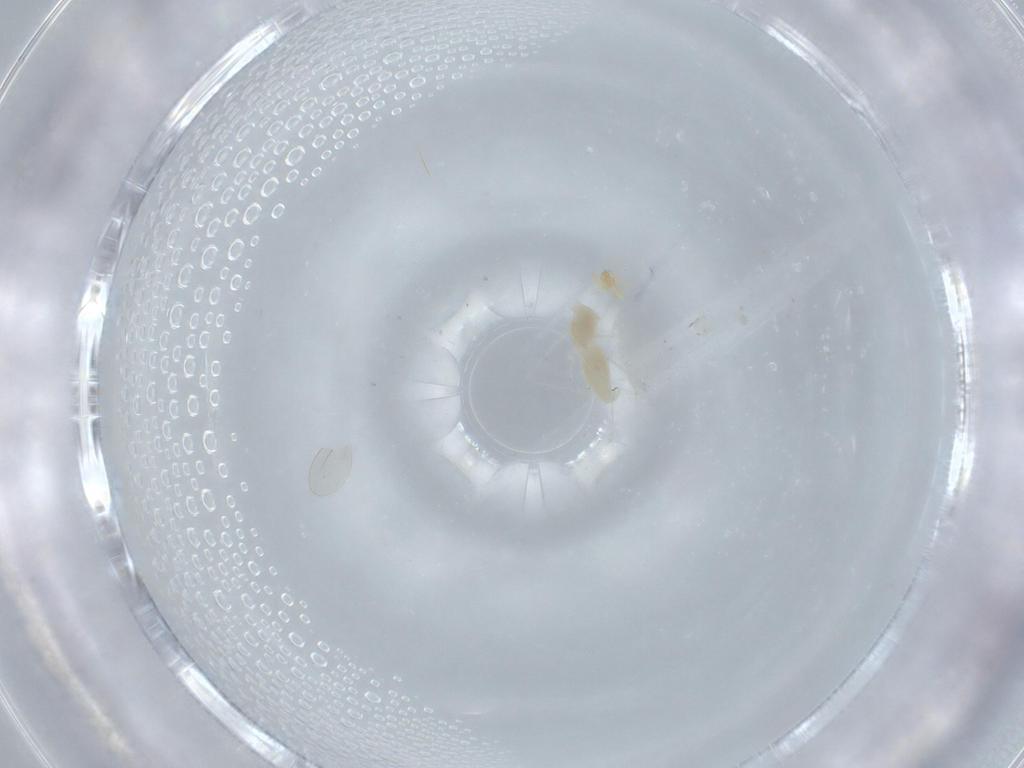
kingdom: Animalia
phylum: Arthropoda
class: Insecta
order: Diptera
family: Cecidomyiidae
